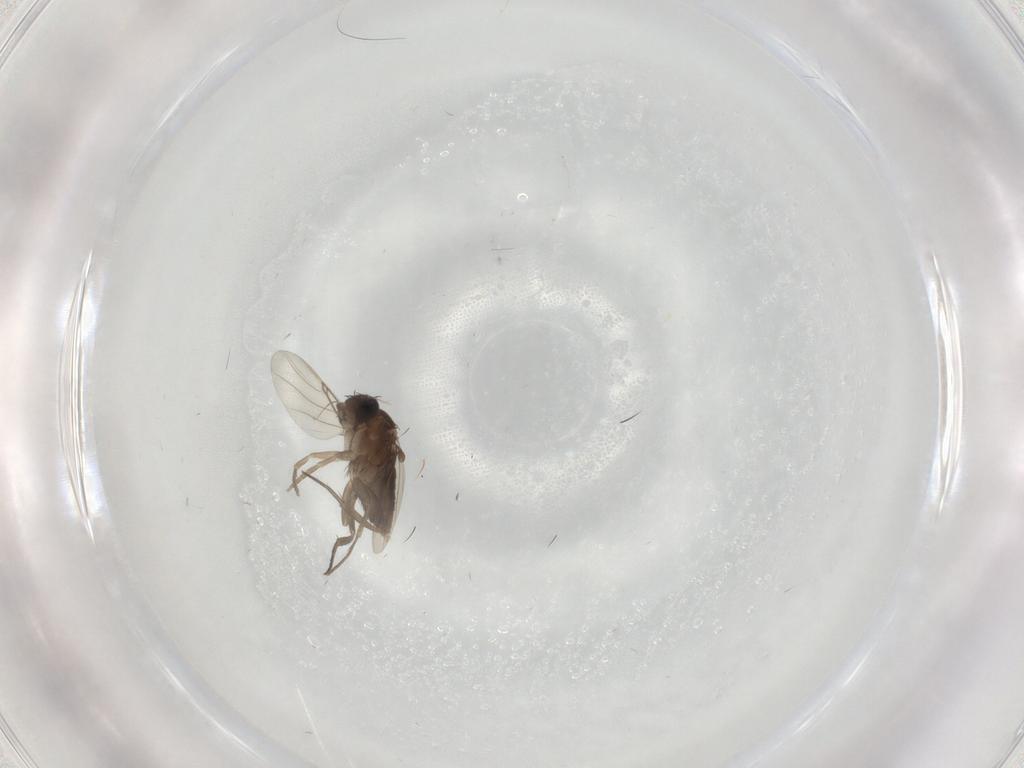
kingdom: Animalia
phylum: Arthropoda
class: Insecta
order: Diptera
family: Phoridae
